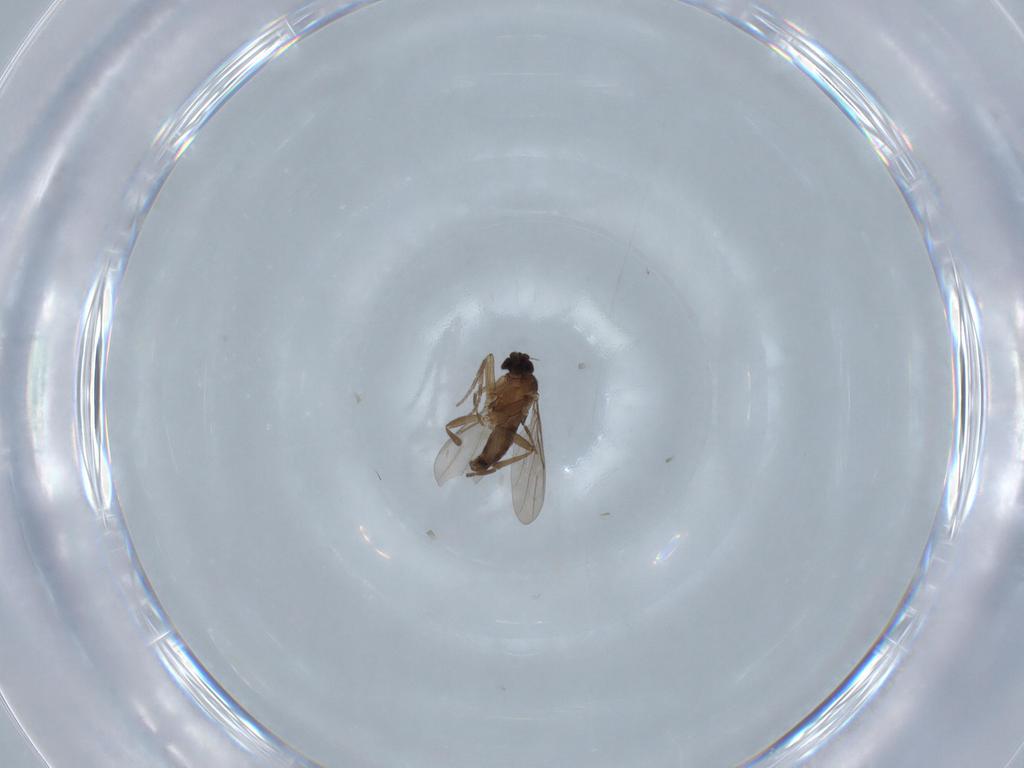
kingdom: Animalia
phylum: Arthropoda
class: Insecta
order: Diptera
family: Phoridae
